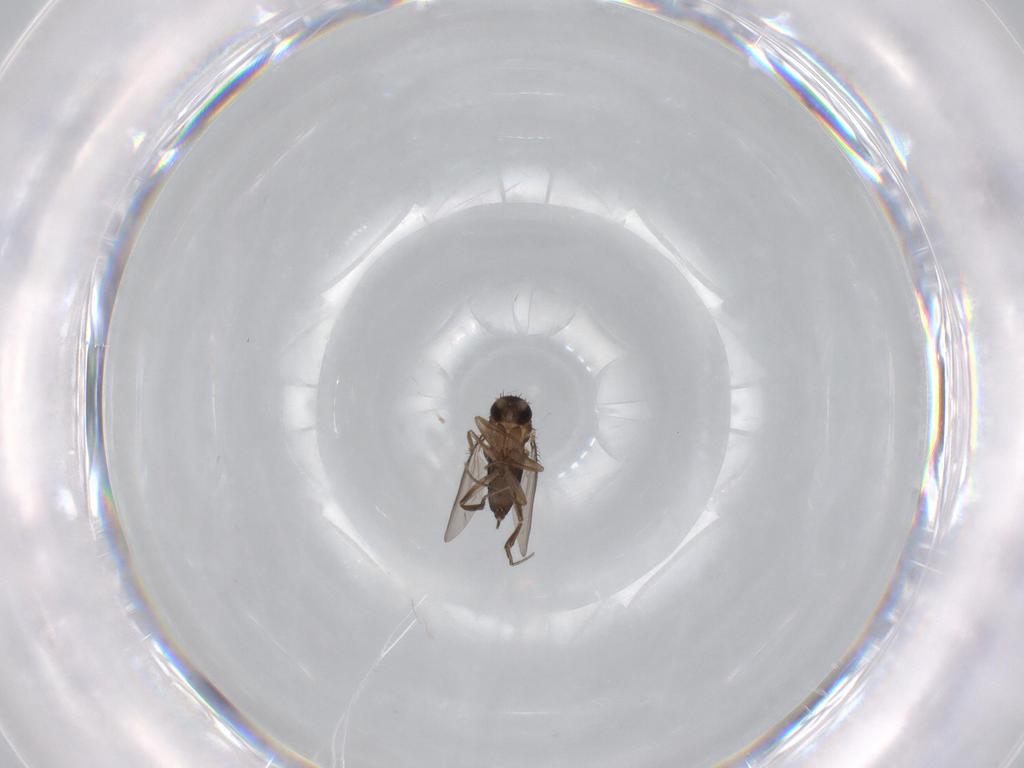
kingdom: Animalia
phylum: Arthropoda
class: Insecta
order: Diptera
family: Phoridae
